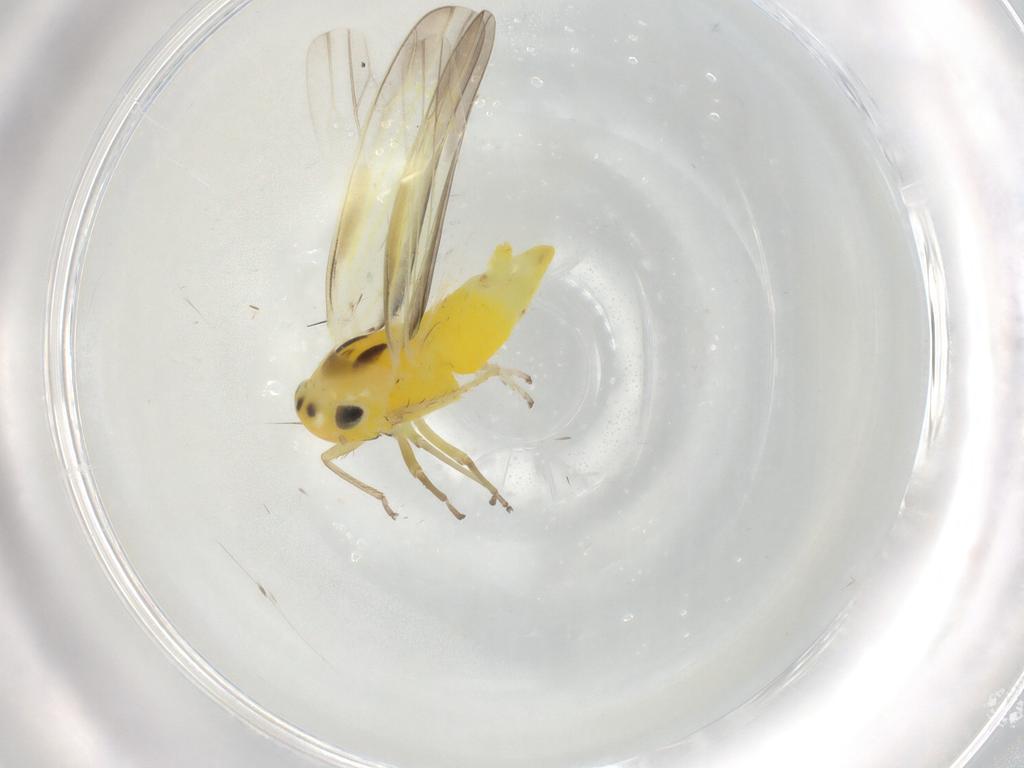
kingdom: Animalia
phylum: Arthropoda
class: Insecta
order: Hemiptera
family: Cicadellidae
